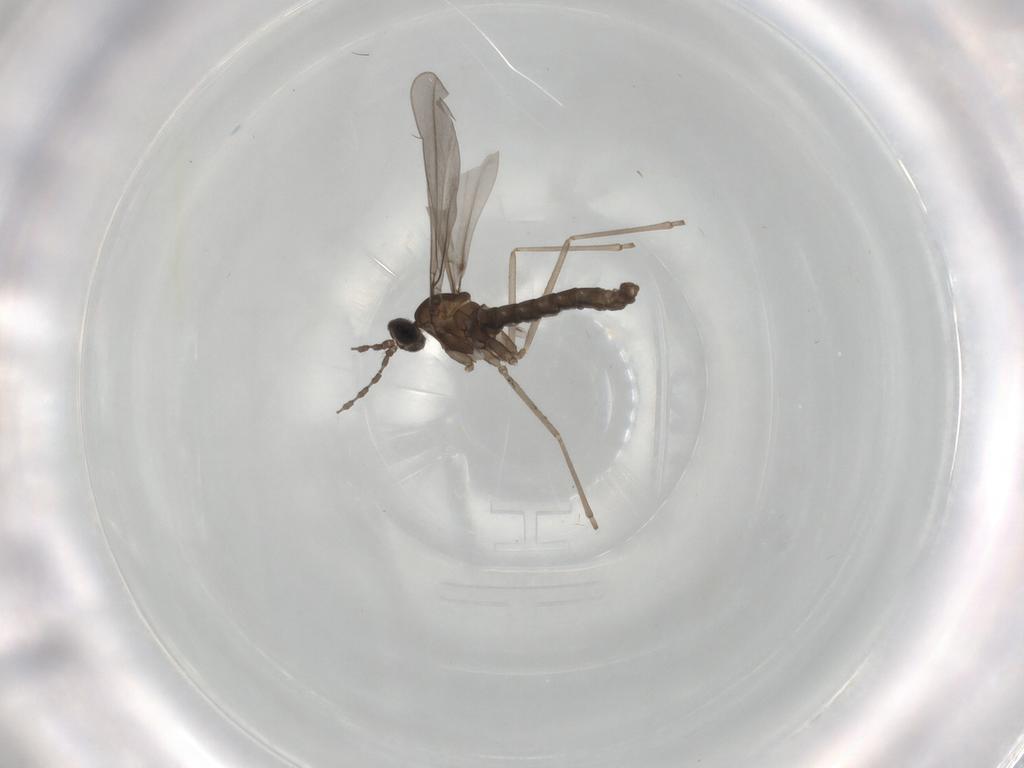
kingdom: Animalia
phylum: Arthropoda
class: Insecta
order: Diptera
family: Cecidomyiidae
